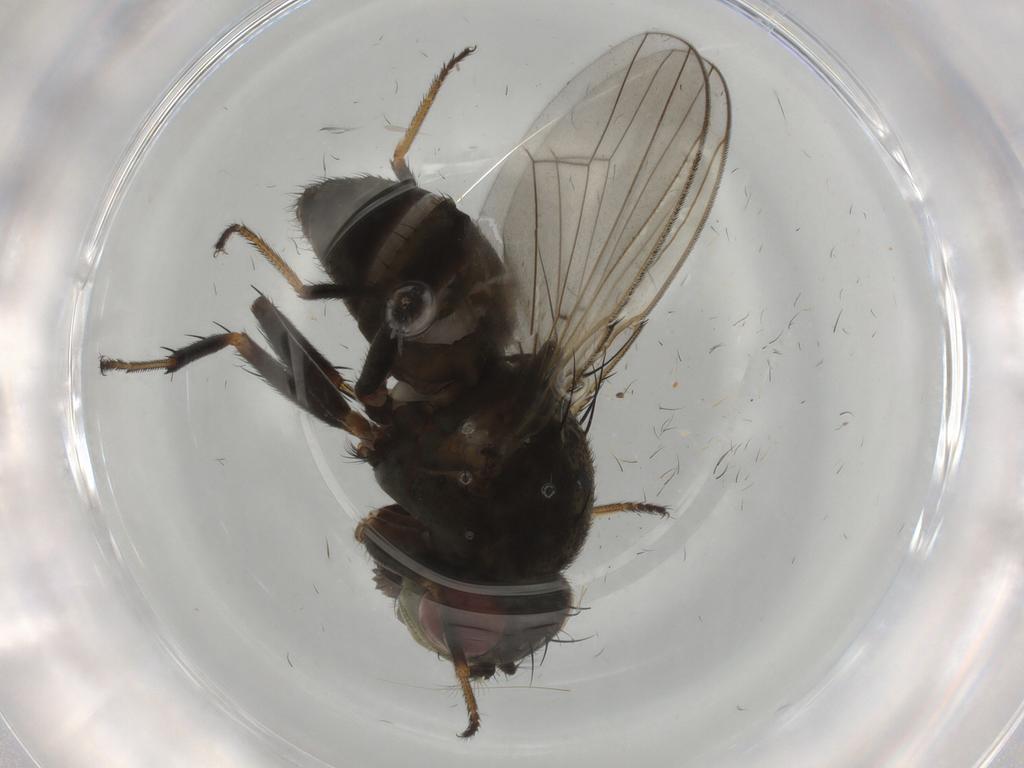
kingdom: Animalia
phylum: Arthropoda
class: Insecta
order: Diptera
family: Ephydridae
